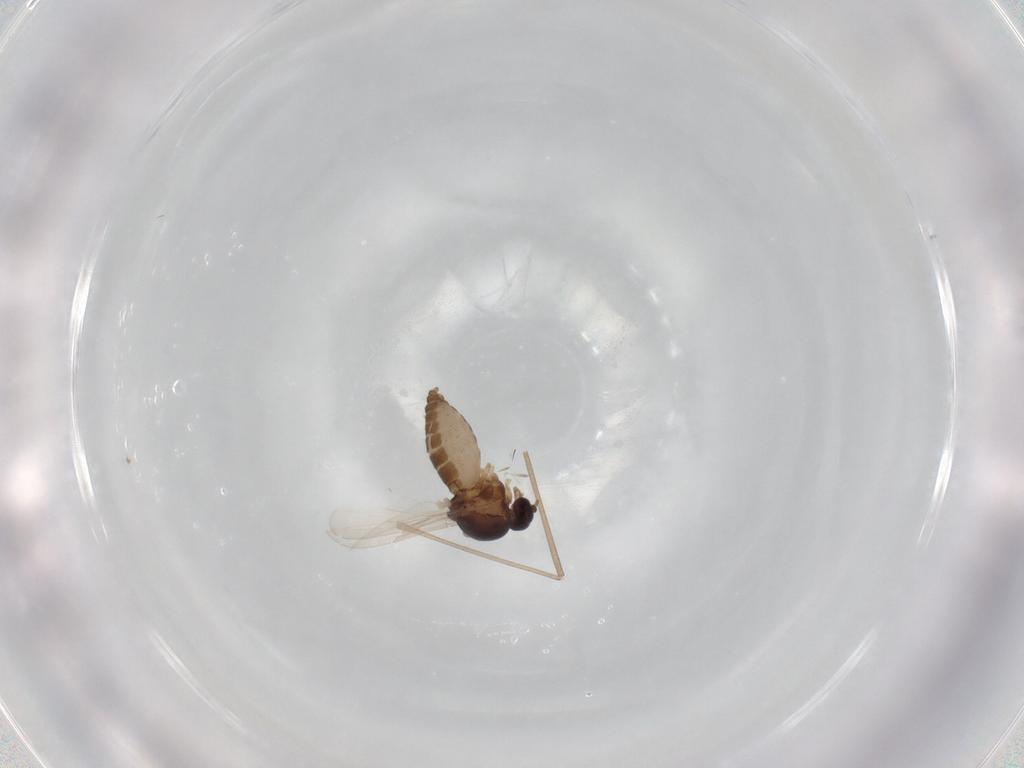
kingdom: Animalia
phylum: Arthropoda
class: Insecta
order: Diptera
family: Ceratopogonidae
